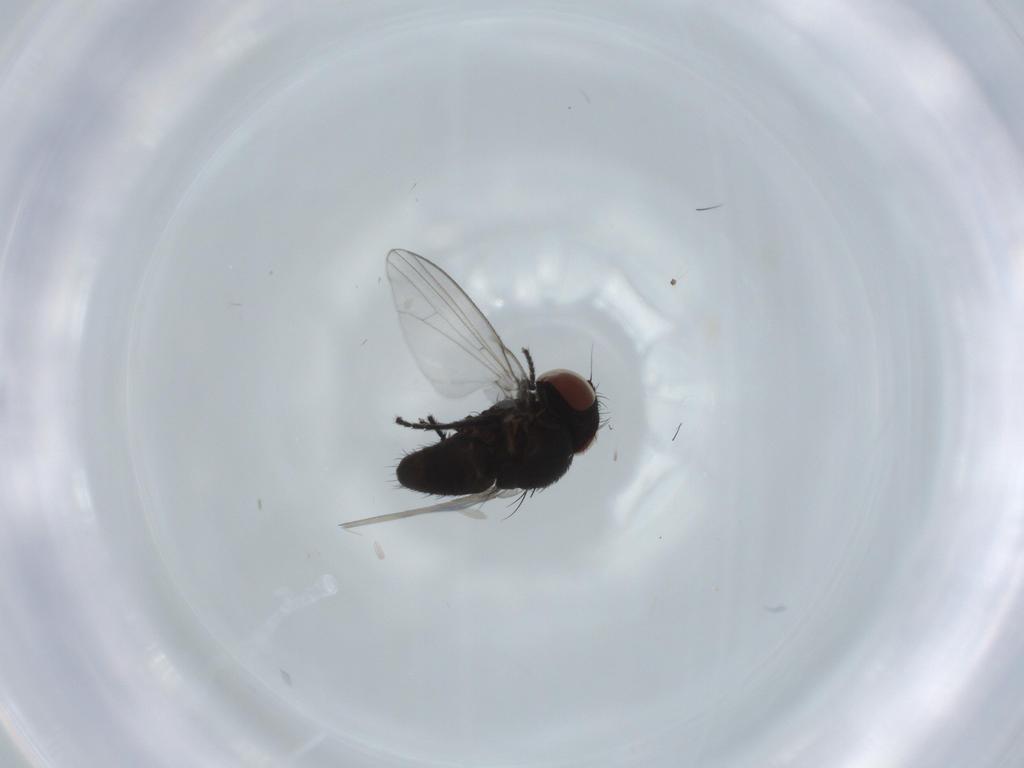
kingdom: Animalia
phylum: Arthropoda
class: Insecta
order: Diptera
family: Milichiidae
